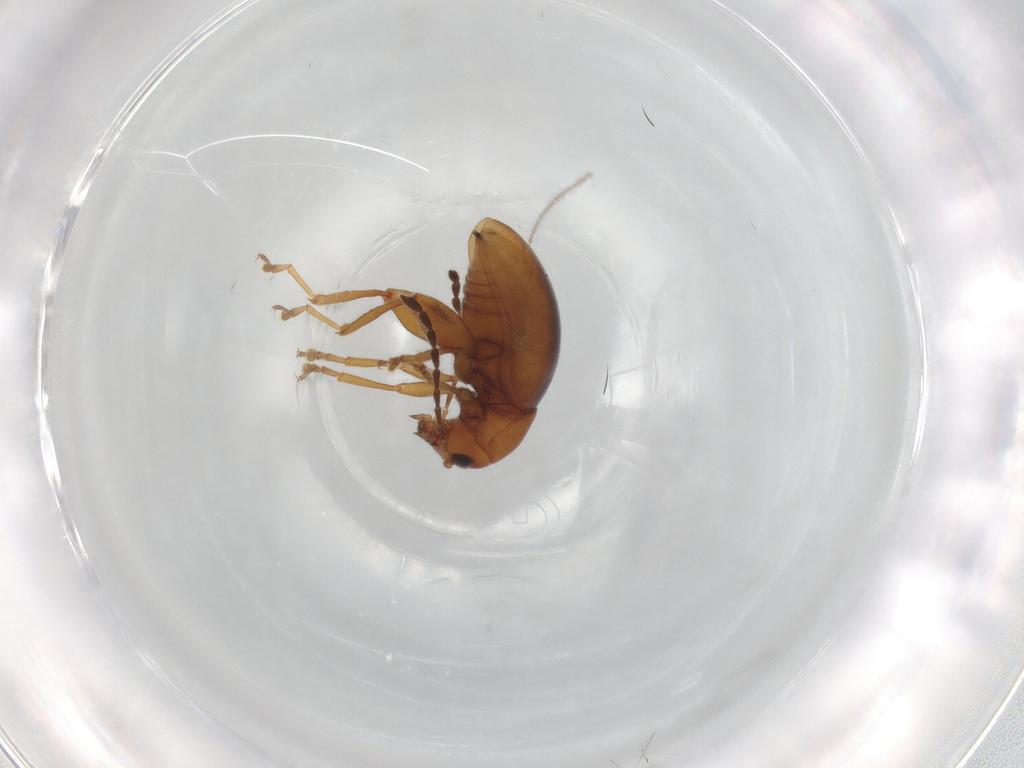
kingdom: Animalia
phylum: Arthropoda
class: Insecta
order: Coleoptera
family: Chrysomelidae
